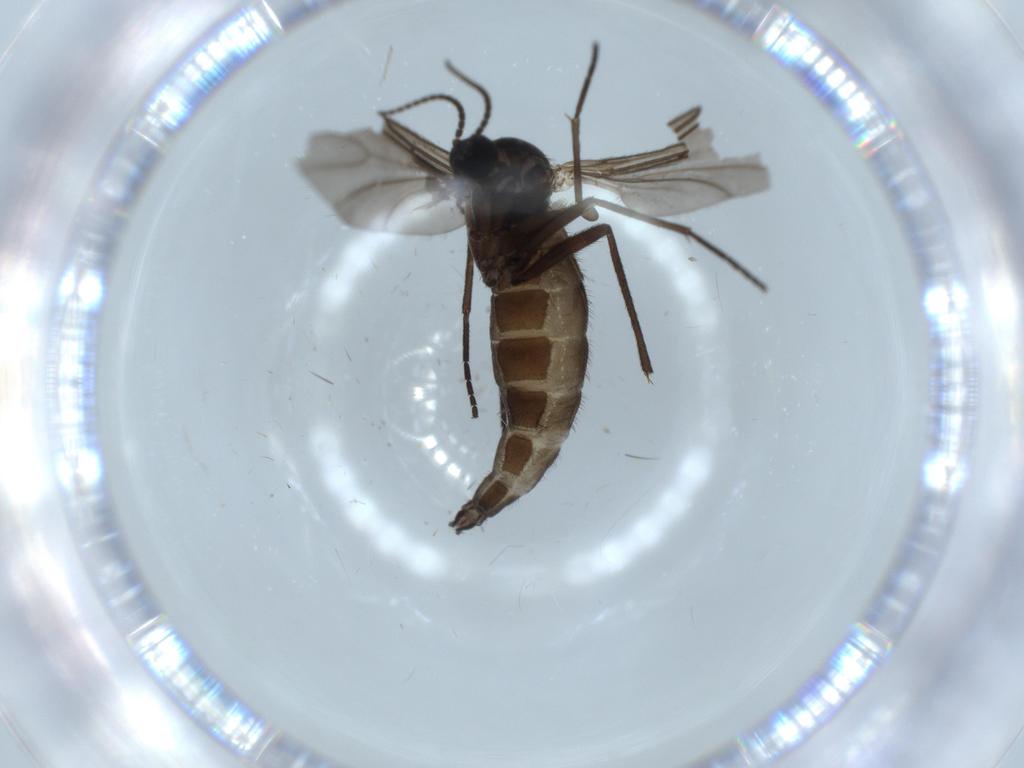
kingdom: Animalia
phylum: Arthropoda
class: Insecta
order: Diptera
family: Sciaridae
